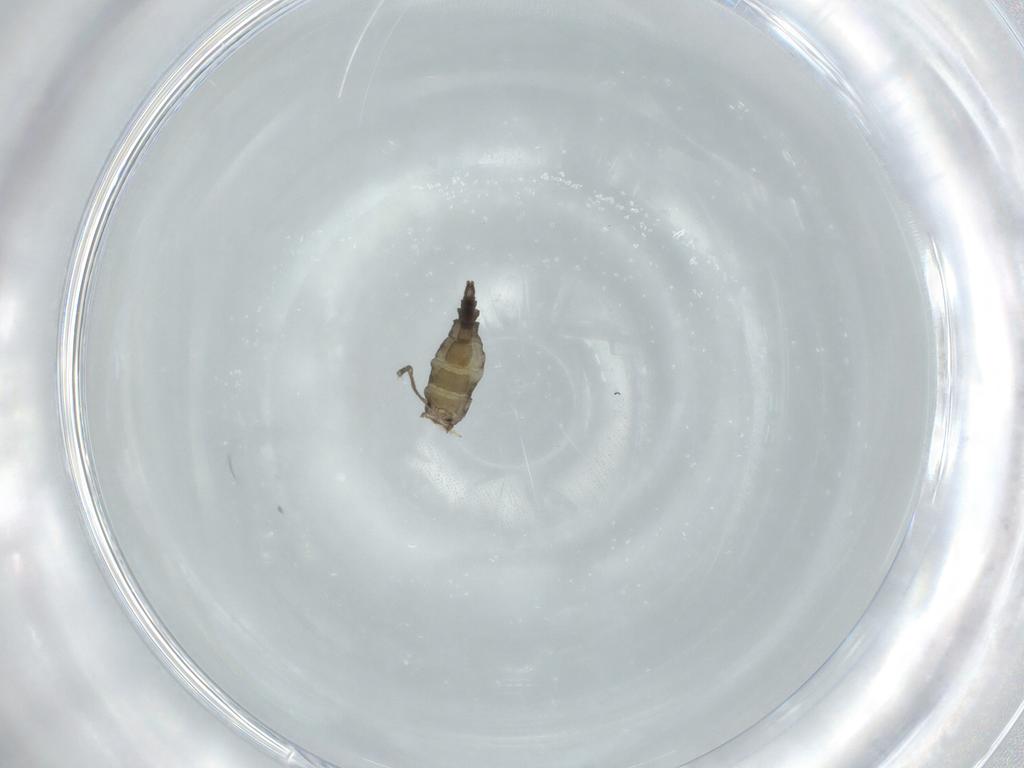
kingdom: Animalia
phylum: Arthropoda
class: Insecta
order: Diptera
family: Sciaridae
